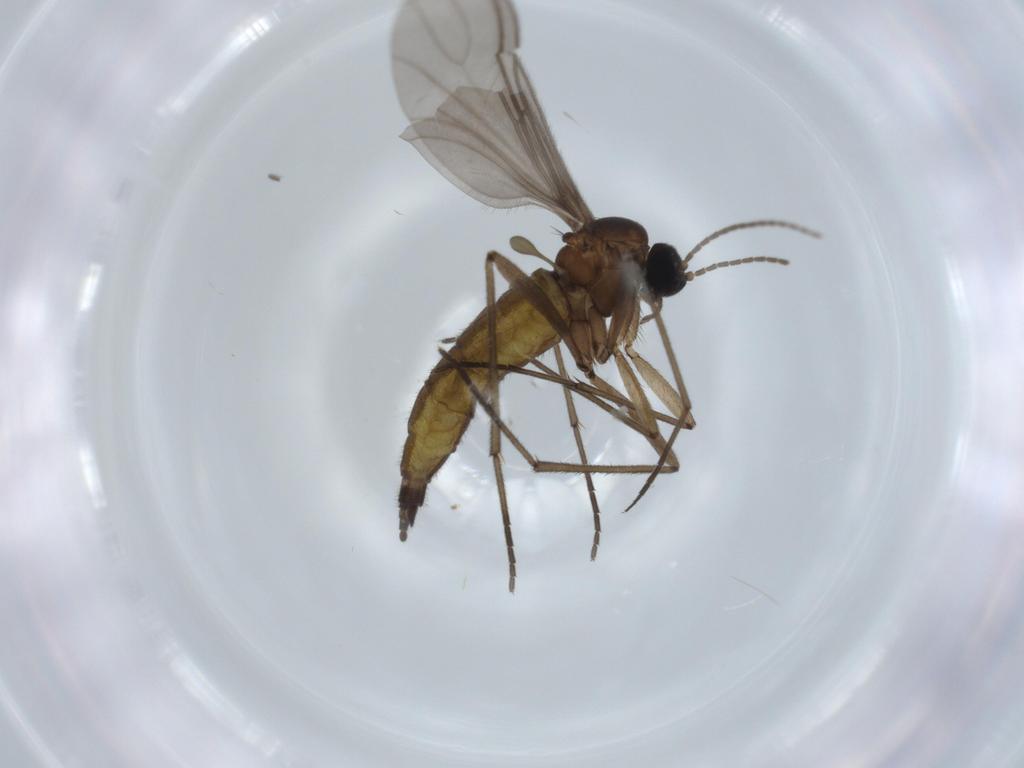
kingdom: Animalia
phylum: Arthropoda
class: Insecta
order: Diptera
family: Sciaridae
